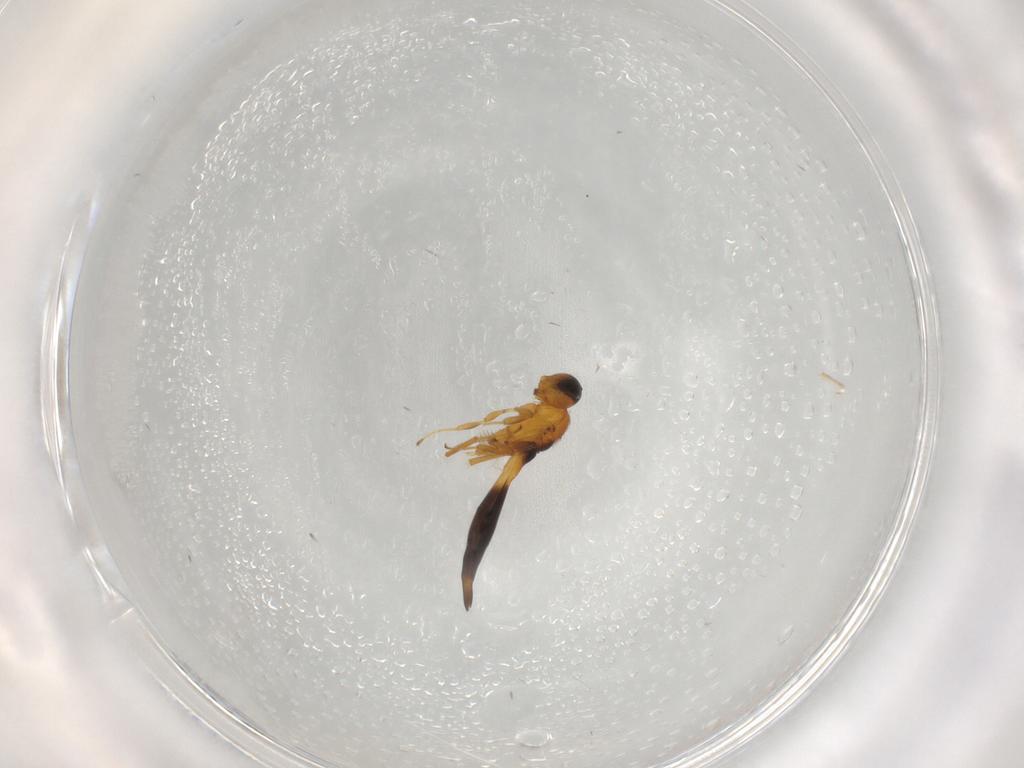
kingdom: Animalia
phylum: Arthropoda
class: Insecta
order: Hymenoptera
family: Scelionidae
